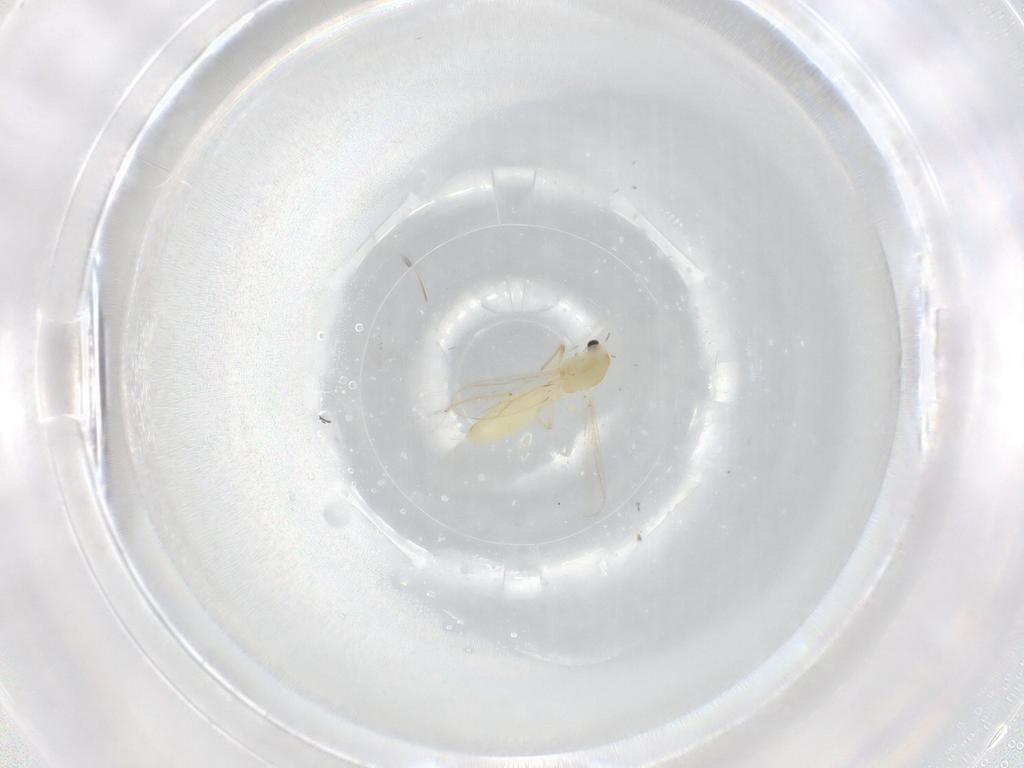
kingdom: Animalia
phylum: Arthropoda
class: Insecta
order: Diptera
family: Chironomidae
